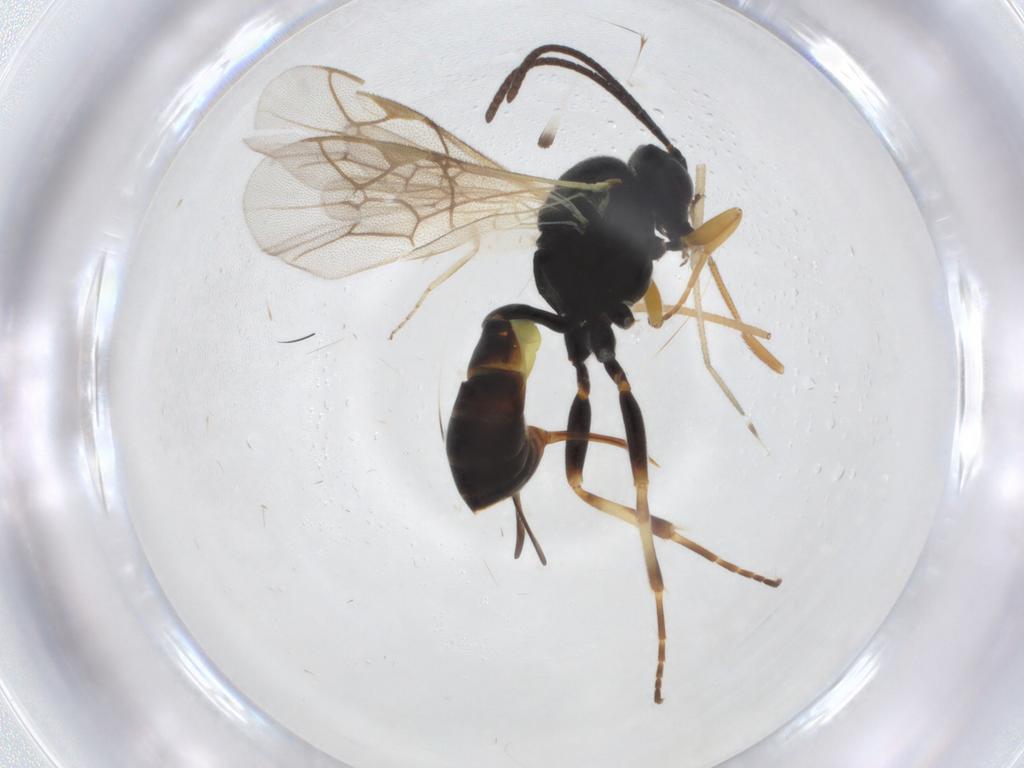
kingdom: Animalia
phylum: Arthropoda
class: Insecta
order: Hymenoptera
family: Ichneumonidae
